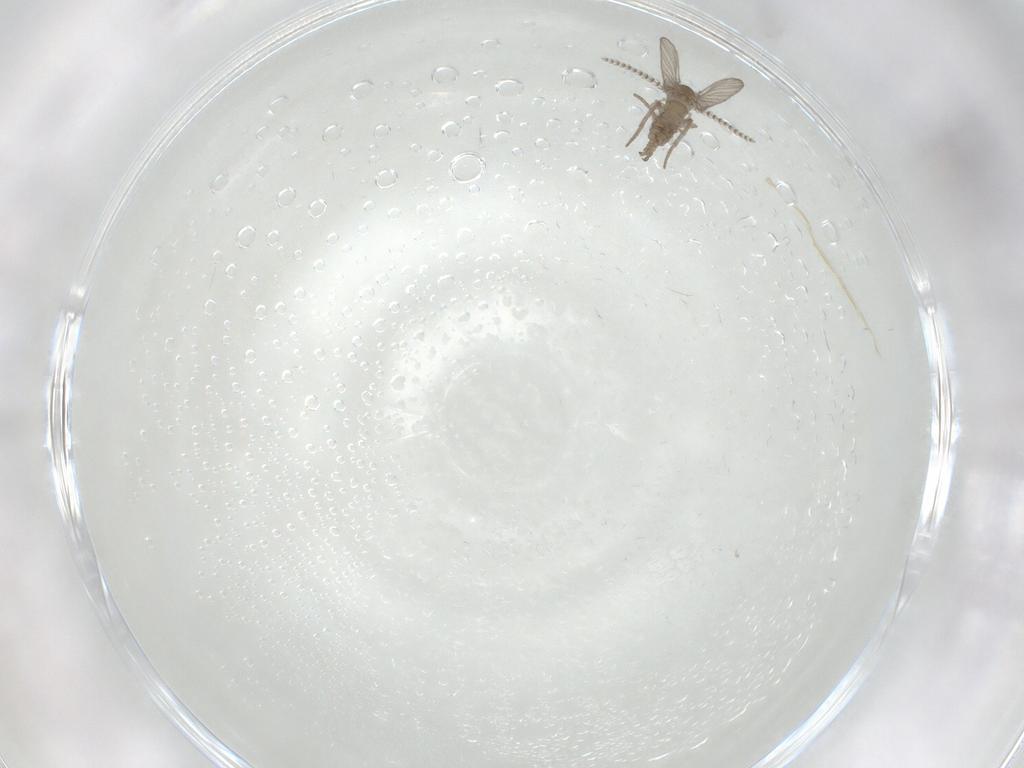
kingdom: Animalia
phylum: Arthropoda
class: Insecta
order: Diptera
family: Psychodidae
